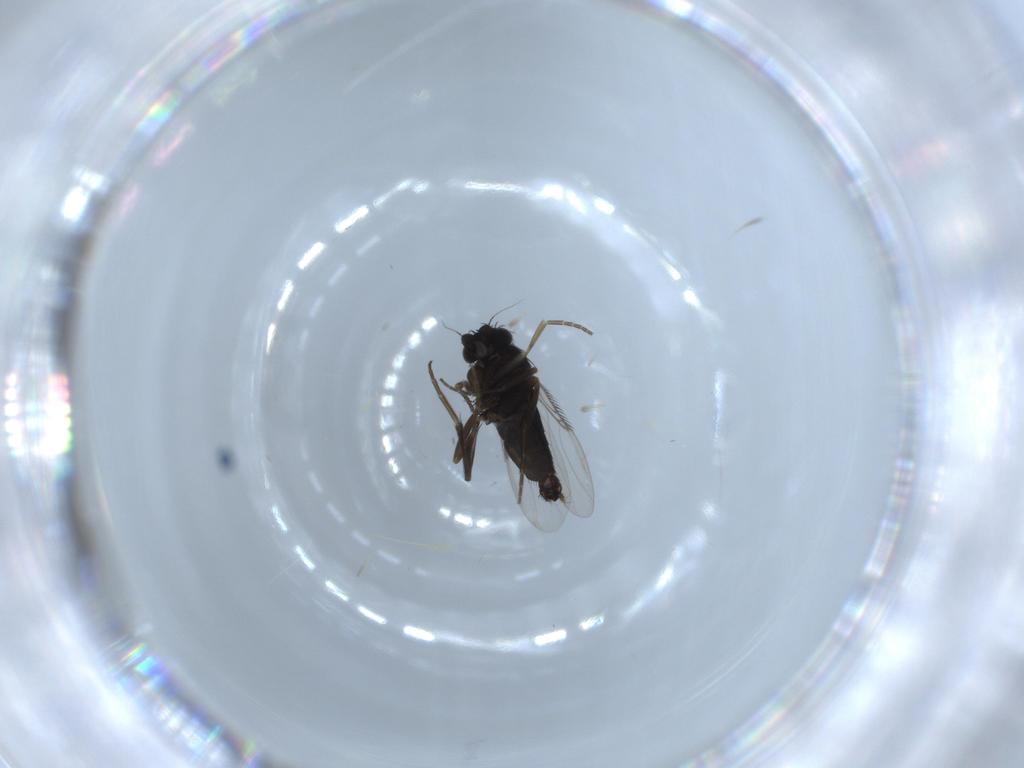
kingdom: Animalia
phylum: Arthropoda
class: Insecta
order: Diptera
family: Phoridae
